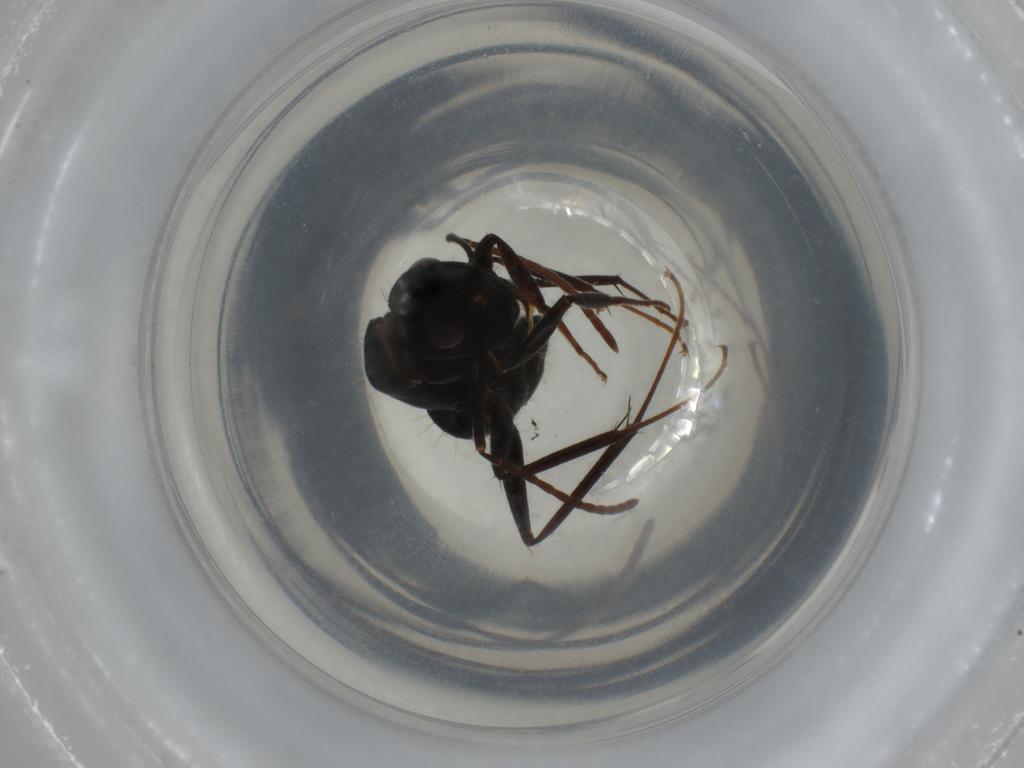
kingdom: Animalia
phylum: Arthropoda
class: Insecta
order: Hymenoptera
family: Formicidae
